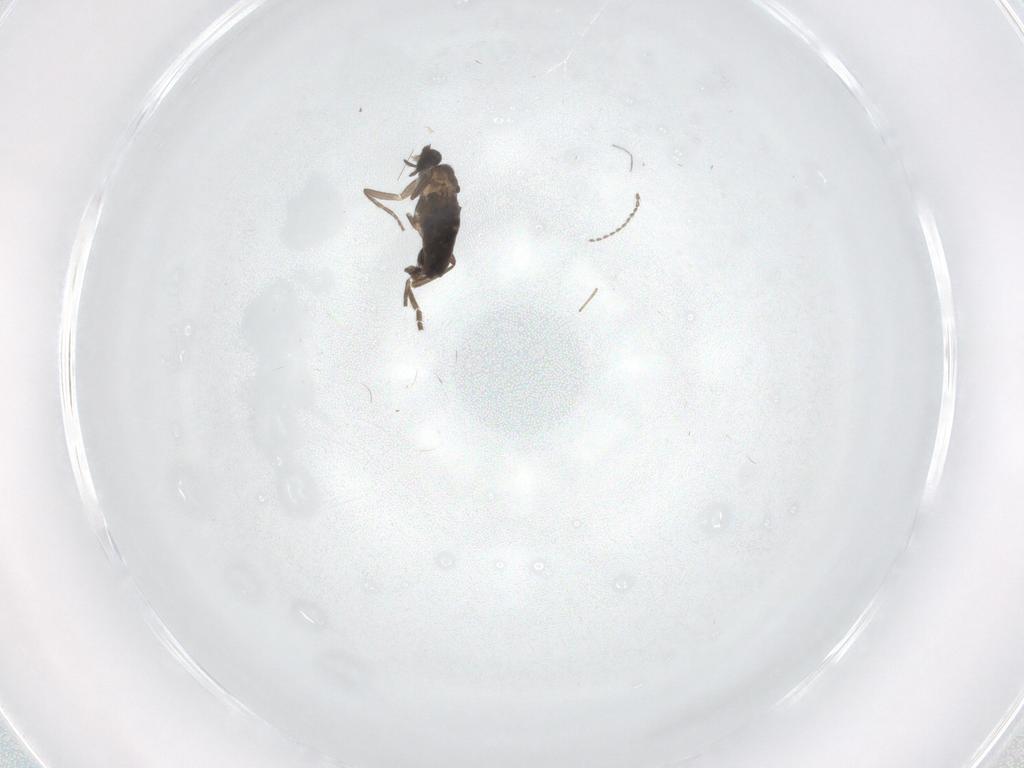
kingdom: Animalia
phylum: Arthropoda
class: Insecta
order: Diptera
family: Phoridae
